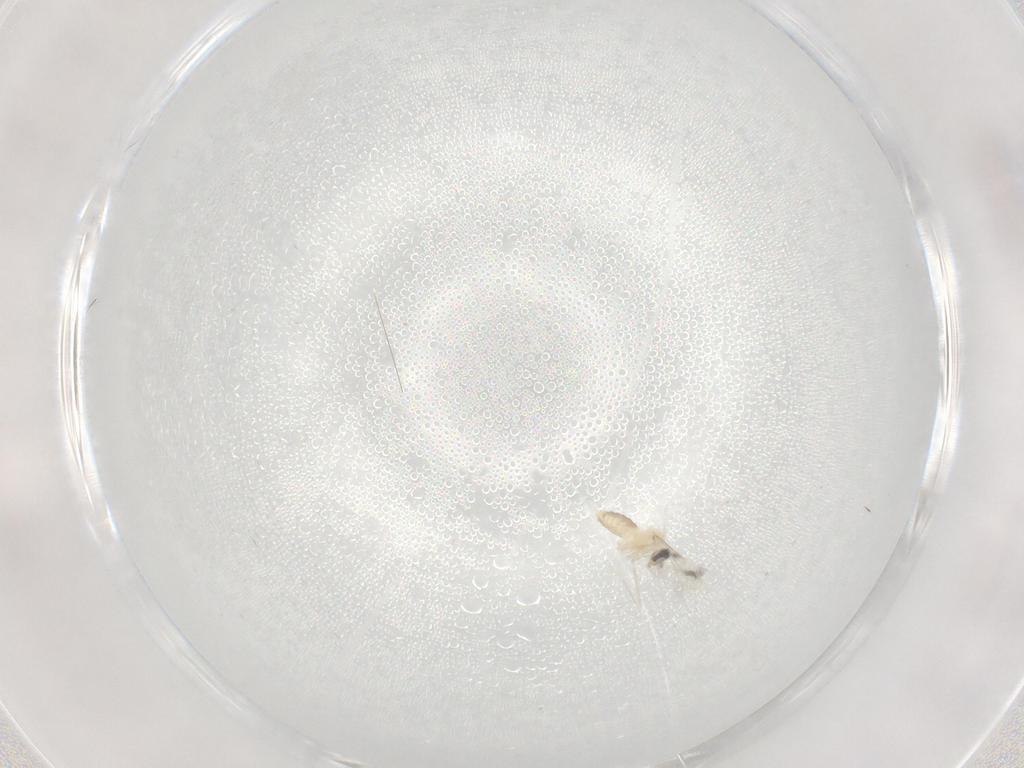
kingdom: Animalia
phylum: Arthropoda
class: Insecta
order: Diptera
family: Cecidomyiidae
